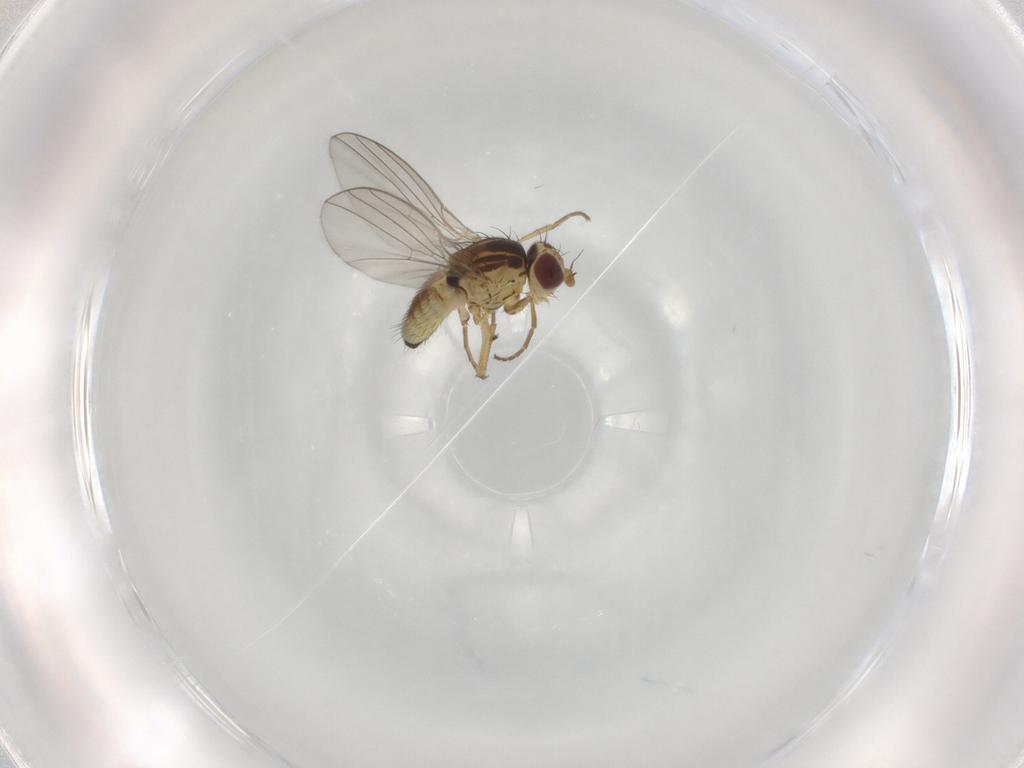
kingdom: Animalia
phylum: Arthropoda
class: Insecta
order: Diptera
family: Agromyzidae
